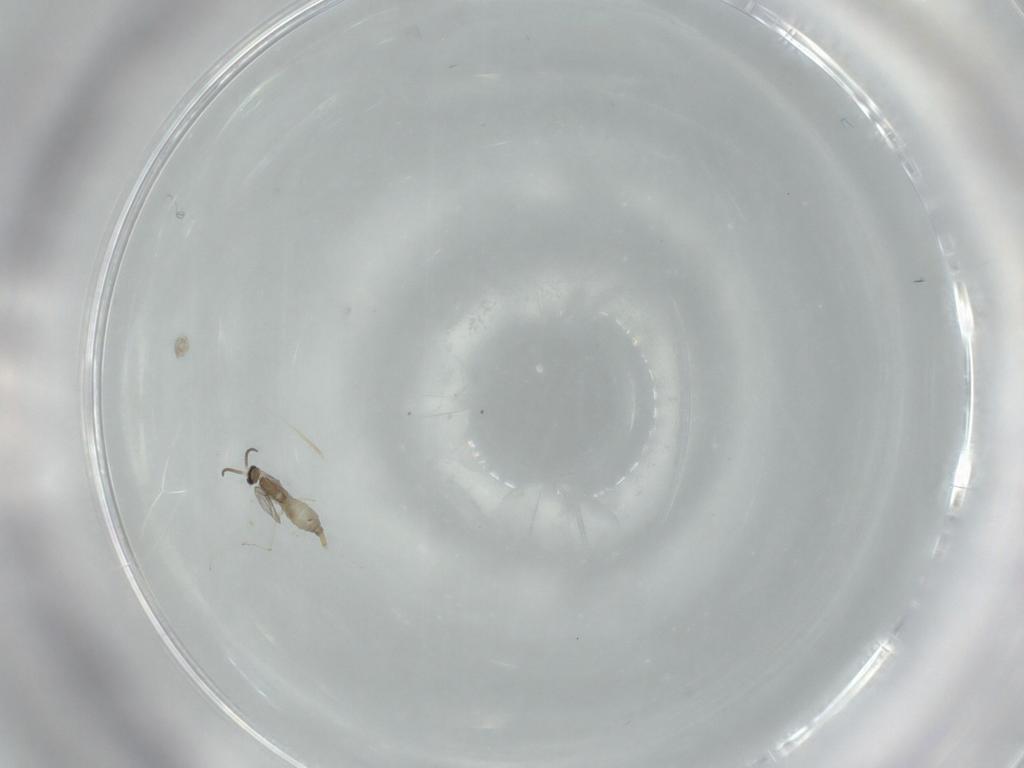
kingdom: Animalia
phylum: Arthropoda
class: Insecta
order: Diptera
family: Cecidomyiidae
